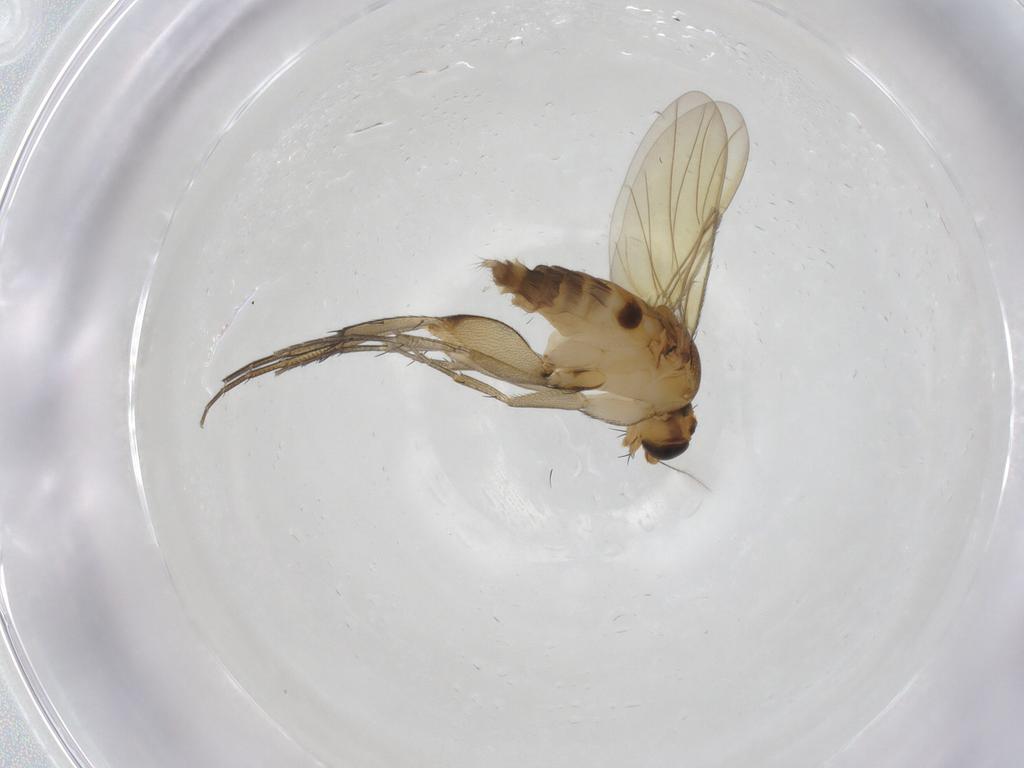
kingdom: Animalia
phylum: Arthropoda
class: Insecta
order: Diptera
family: Phoridae
